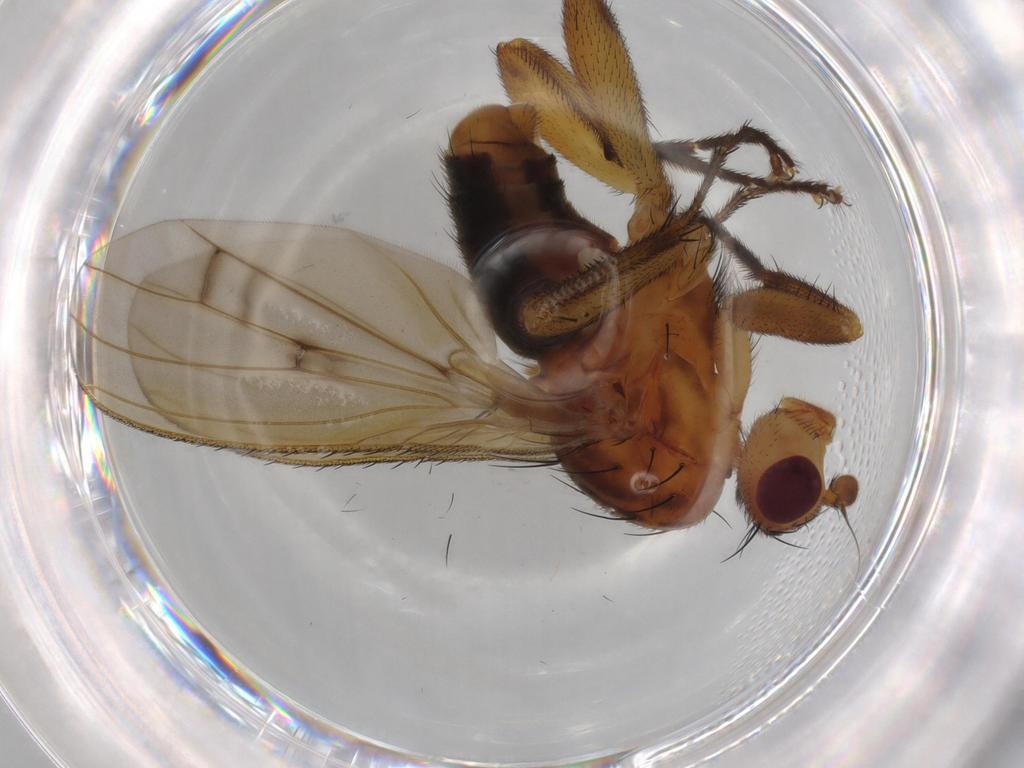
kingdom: Animalia
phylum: Arthropoda
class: Insecta
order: Diptera
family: Heleomyzidae
